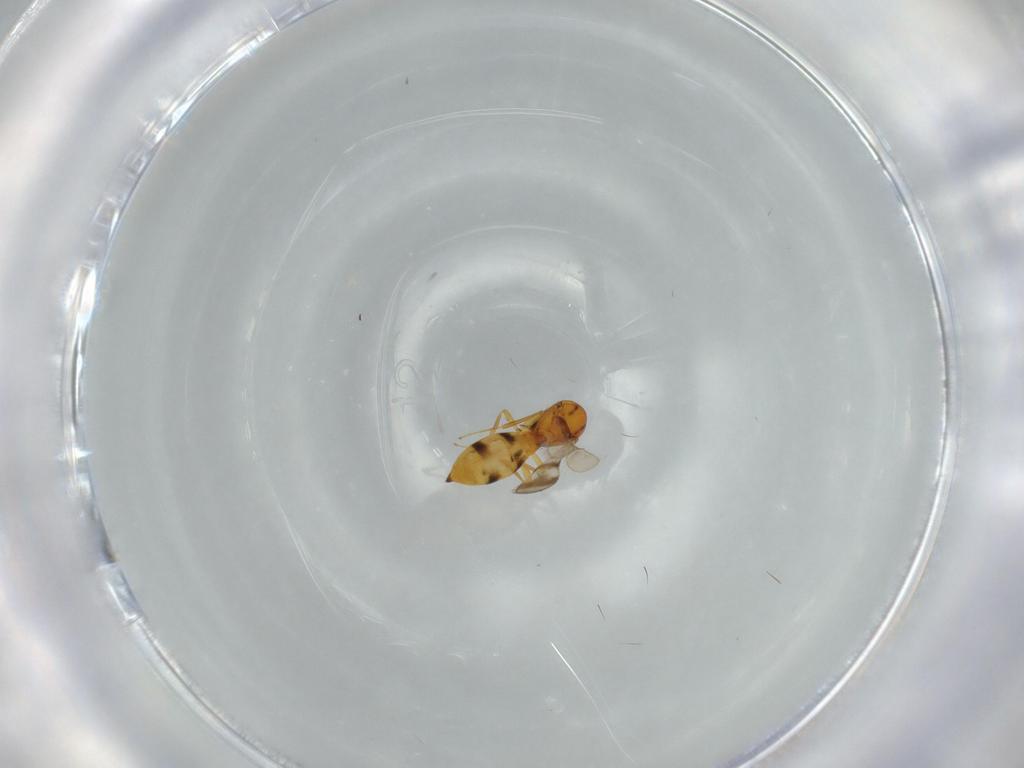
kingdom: Animalia
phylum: Arthropoda
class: Insecta
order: Hymenoptera
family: Scelionidae
